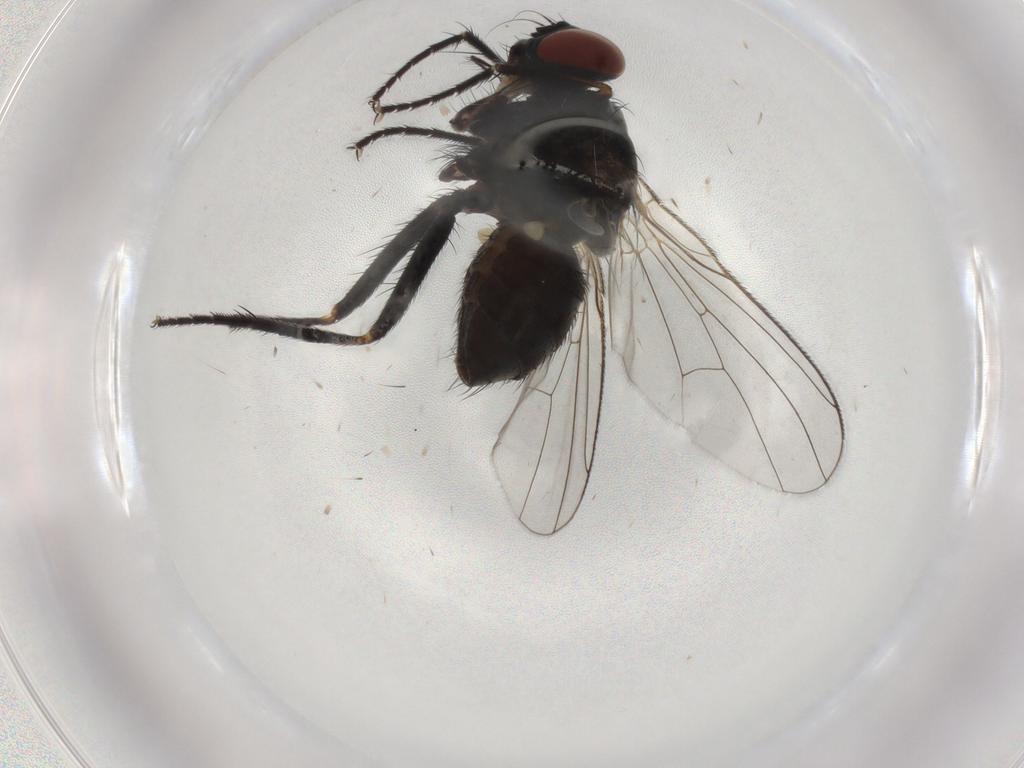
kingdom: Animalia
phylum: Arthropoda
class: Insecta
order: Diptera
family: Muscidae
